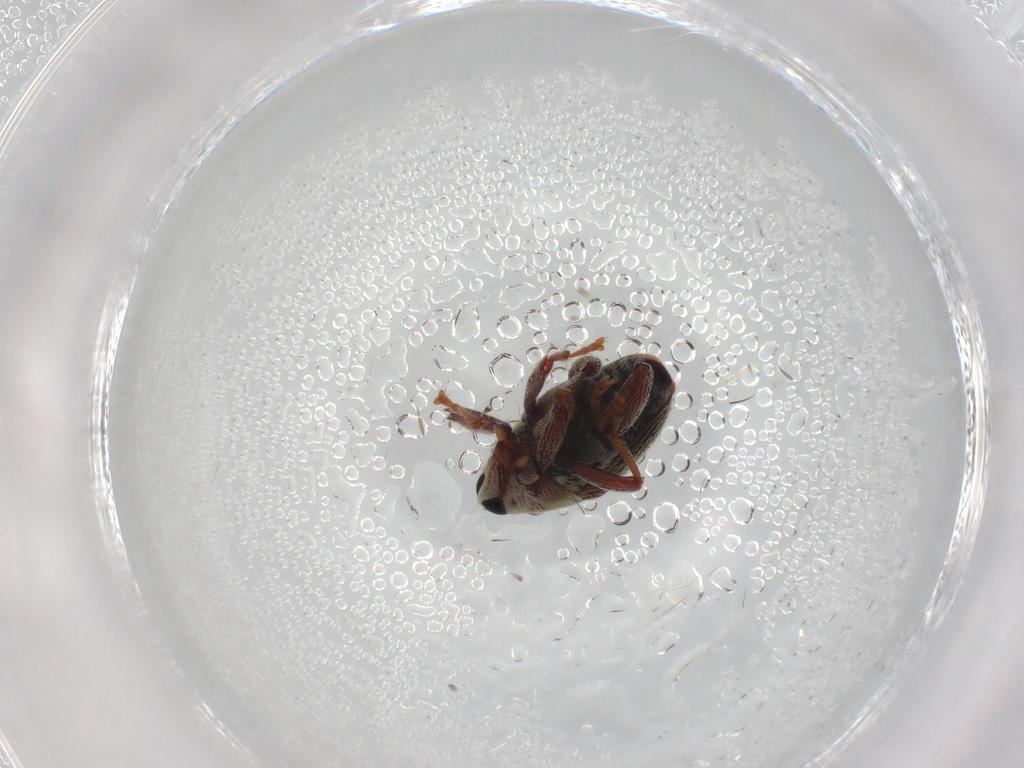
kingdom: Animalia
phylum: Arthropoda
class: Insecta
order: Coleoptera
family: Curculionidae
